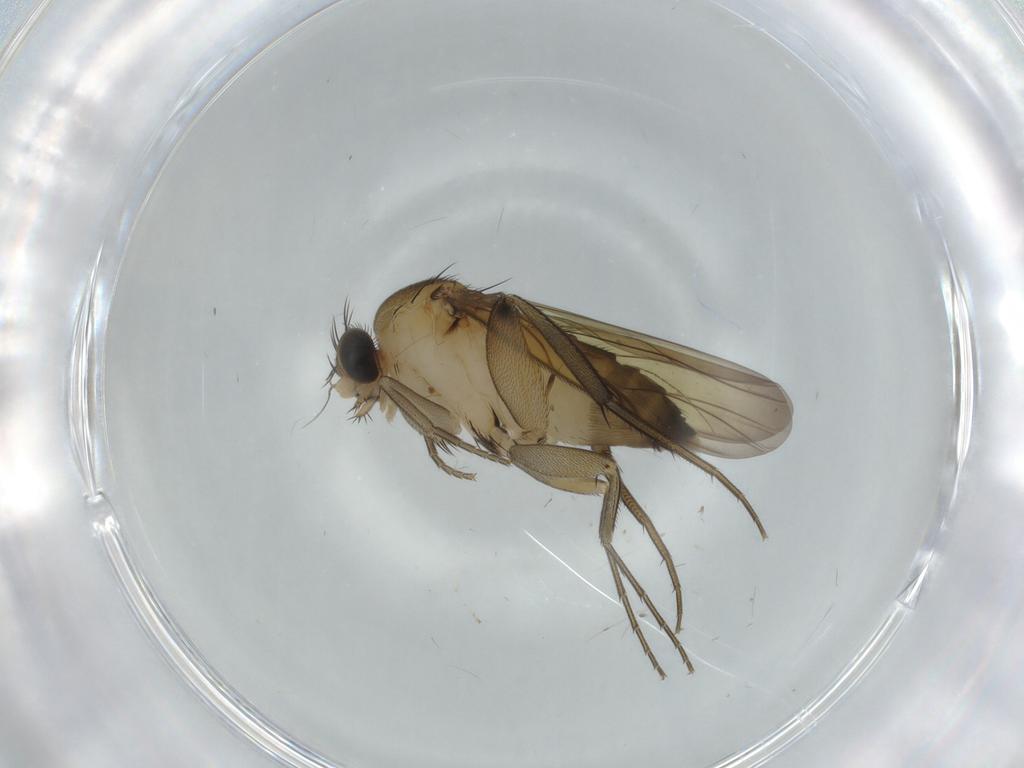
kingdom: Animalia
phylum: Arthropoda
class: Insecta
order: Diptera
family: Phoridae
